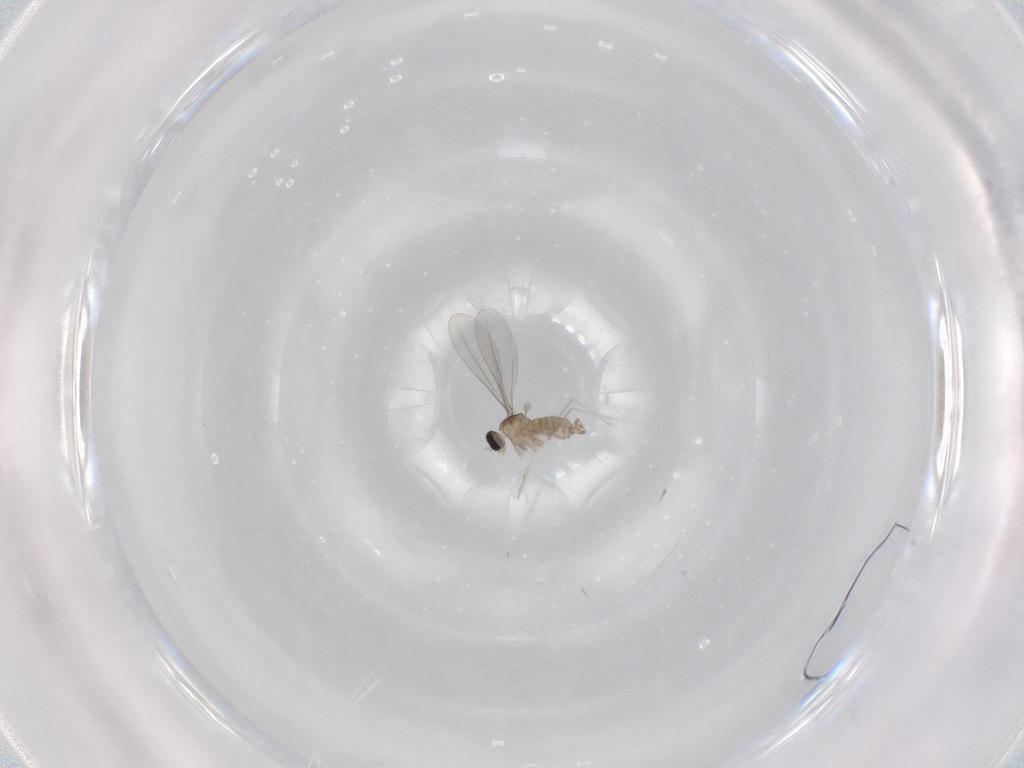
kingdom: Animalia
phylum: Arthropoda
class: Insecta
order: Diptera
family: Cecidomyiidae
